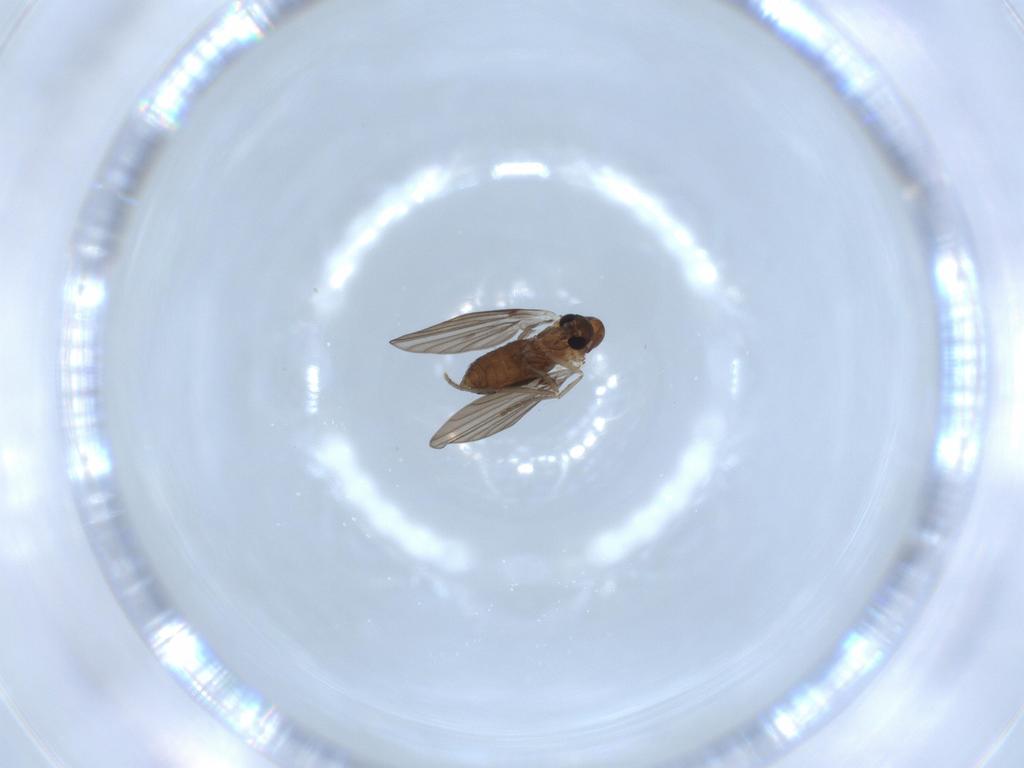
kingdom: Animalia
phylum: Arthropoda
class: Insecta
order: Diptera
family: Psychodidae
